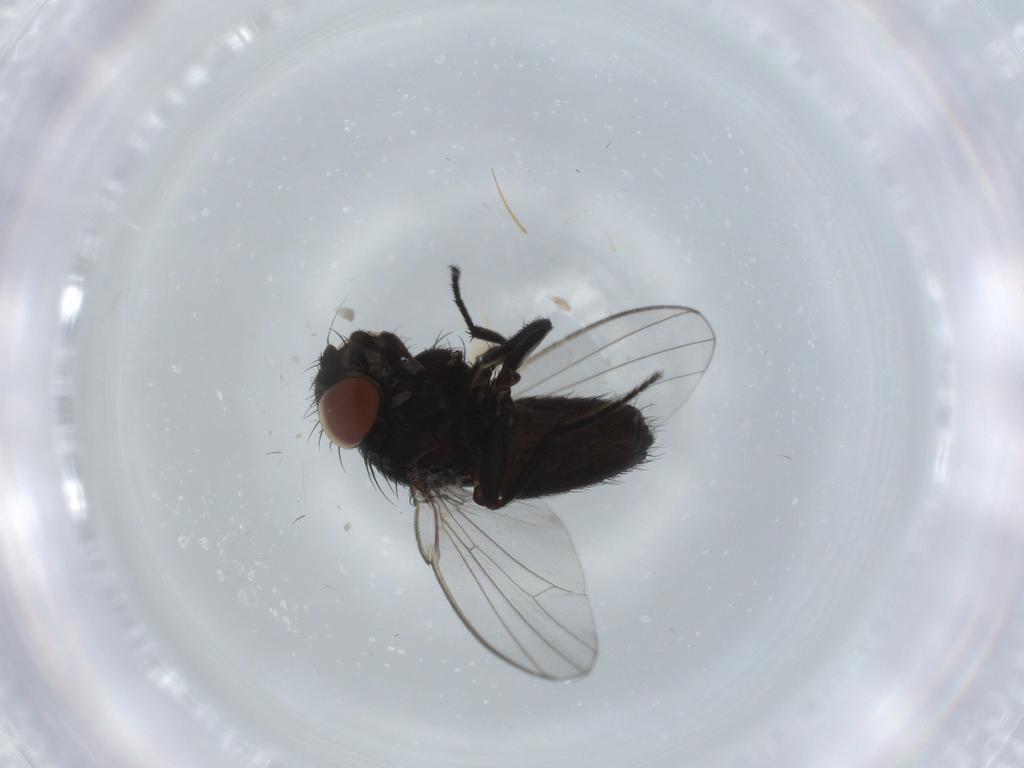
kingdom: Animalia
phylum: Arthropoda
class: Insecta
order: Diptera
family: Milichiidae
